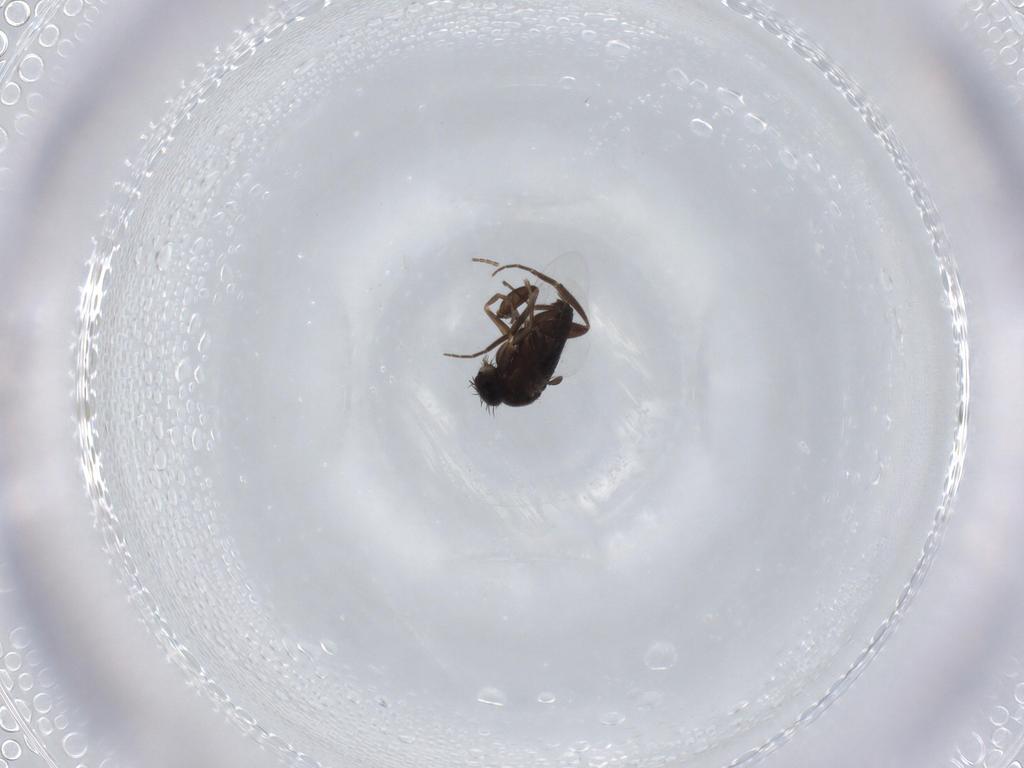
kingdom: Animalia
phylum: Arthropoda
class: Insecta
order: Diptera
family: Phoridae
